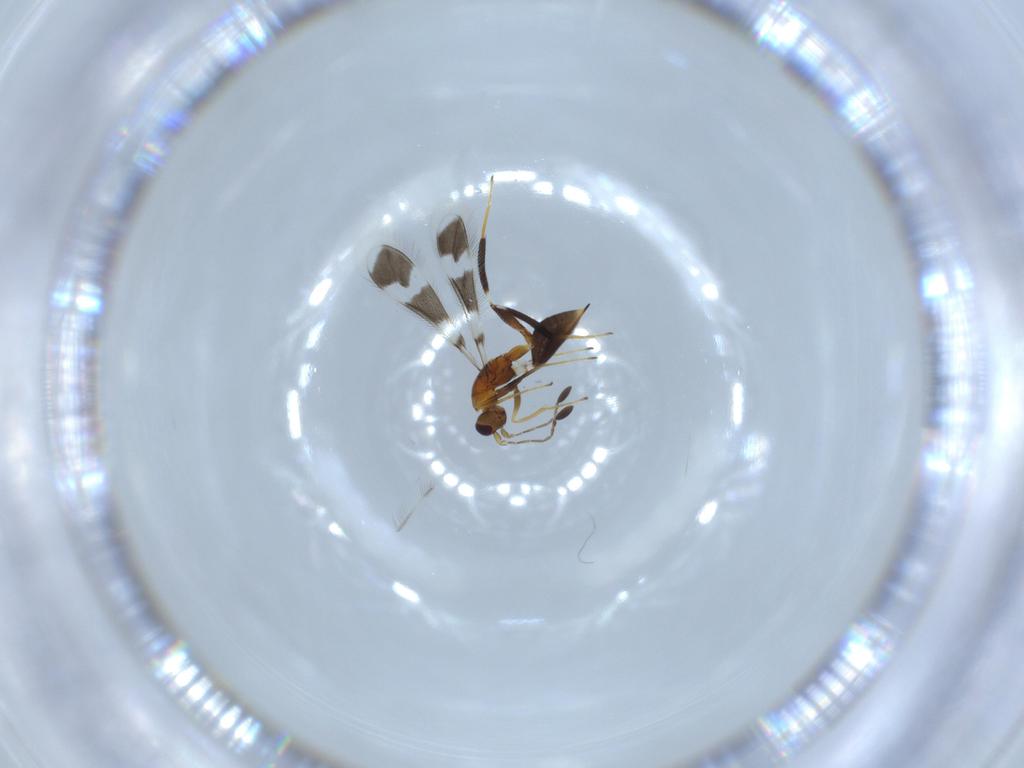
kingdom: Animalia
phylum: Arthropoda
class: Insecta
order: Hymenoptera
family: Mymaridae
